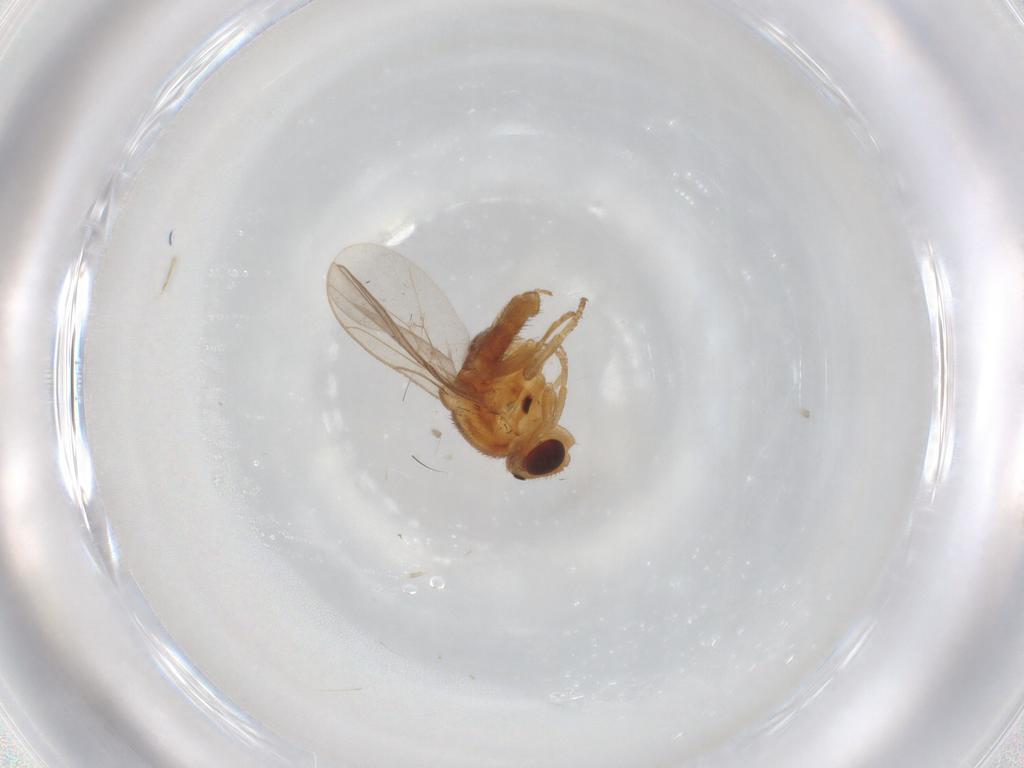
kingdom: Animalia
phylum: Arthropoda
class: Insecta
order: Diptera
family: Chloropidae
